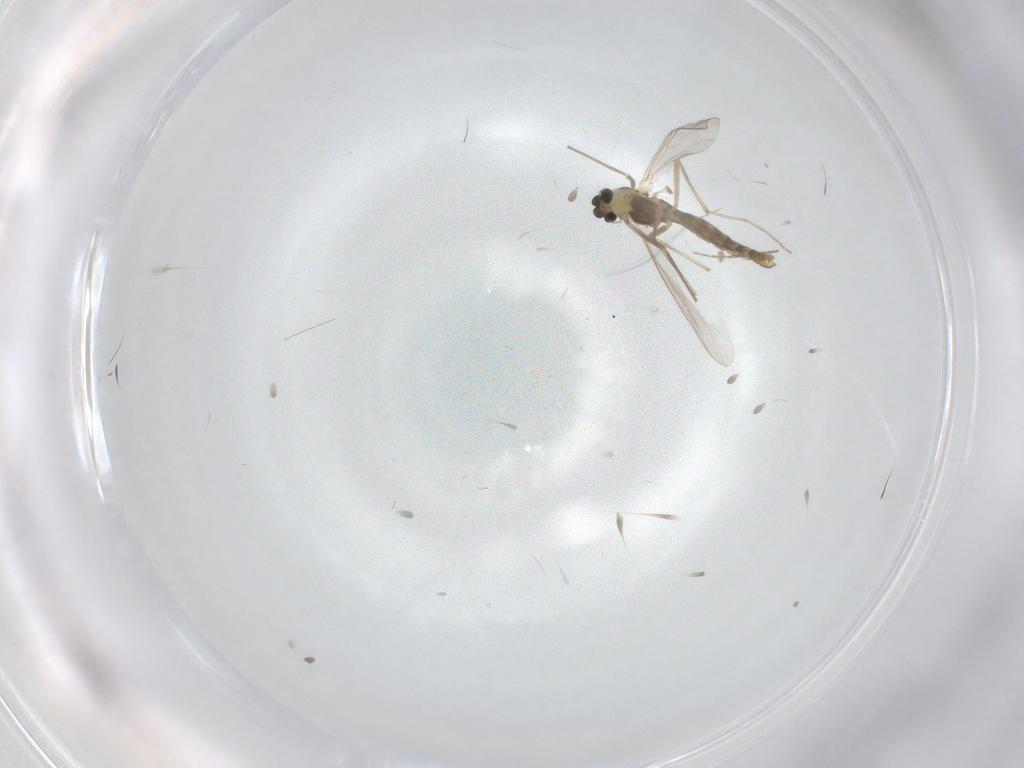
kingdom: Animalia
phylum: Arthropoda
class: Insecta
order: Diptera
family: Chironomidae
